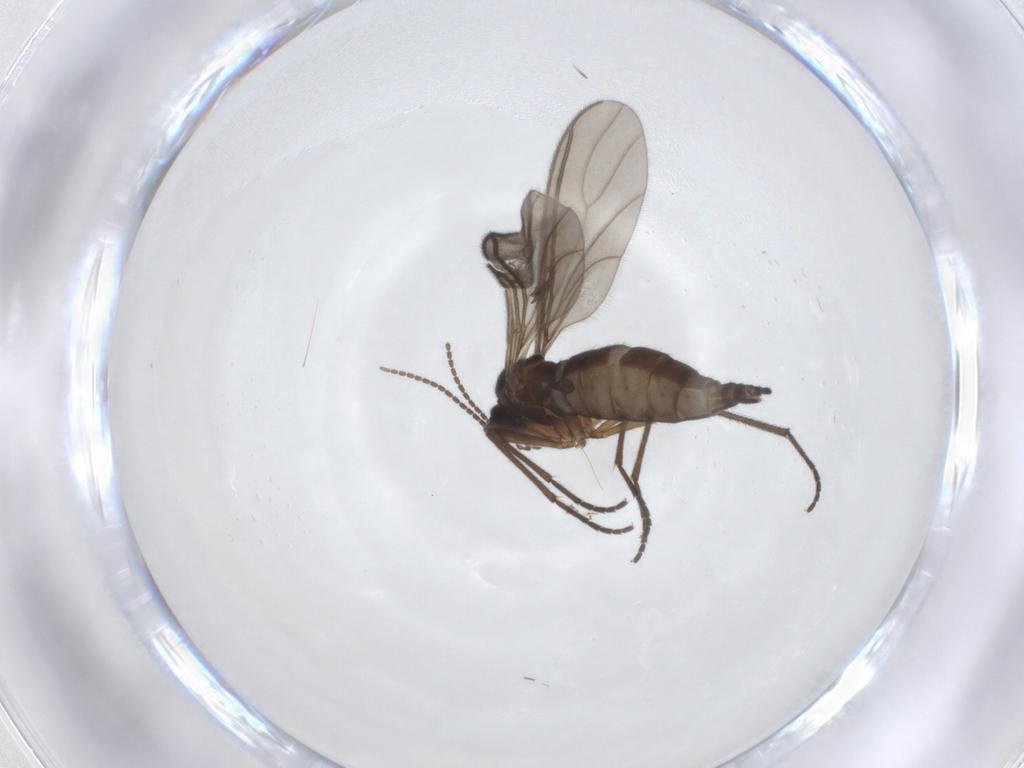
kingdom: Animalia
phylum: Arthropoda
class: Insecta
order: Diptera
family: Sciaridae
